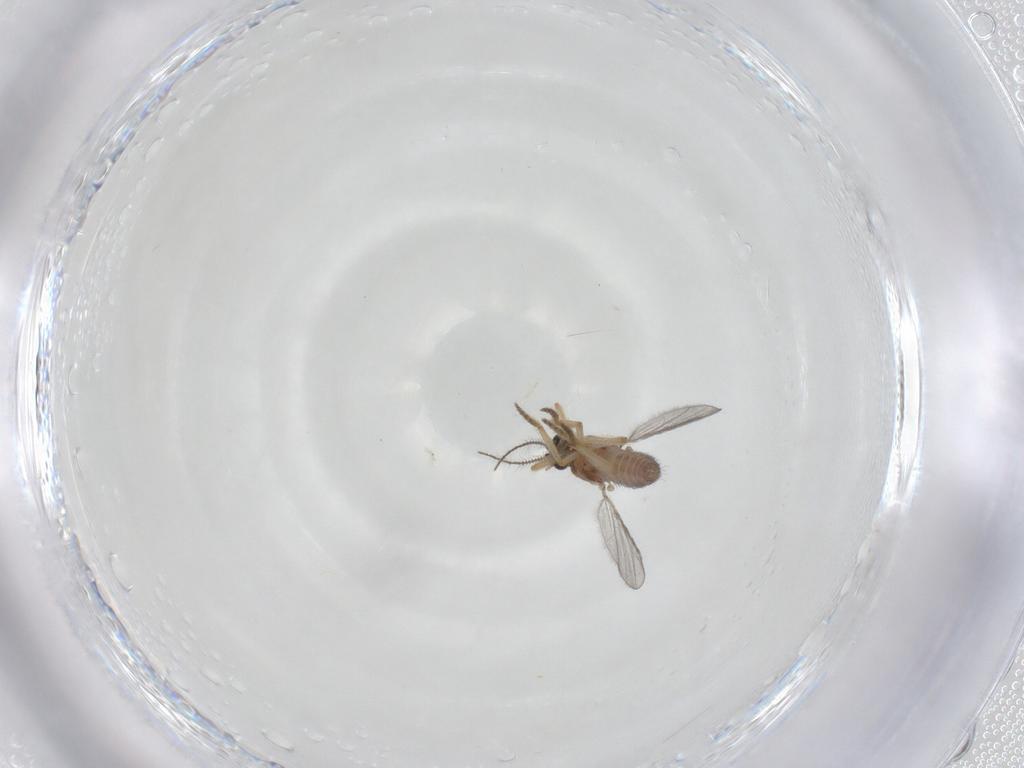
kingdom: Animalia
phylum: Arthropoda
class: Insecta
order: Diptera
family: Ceratopogonidae
